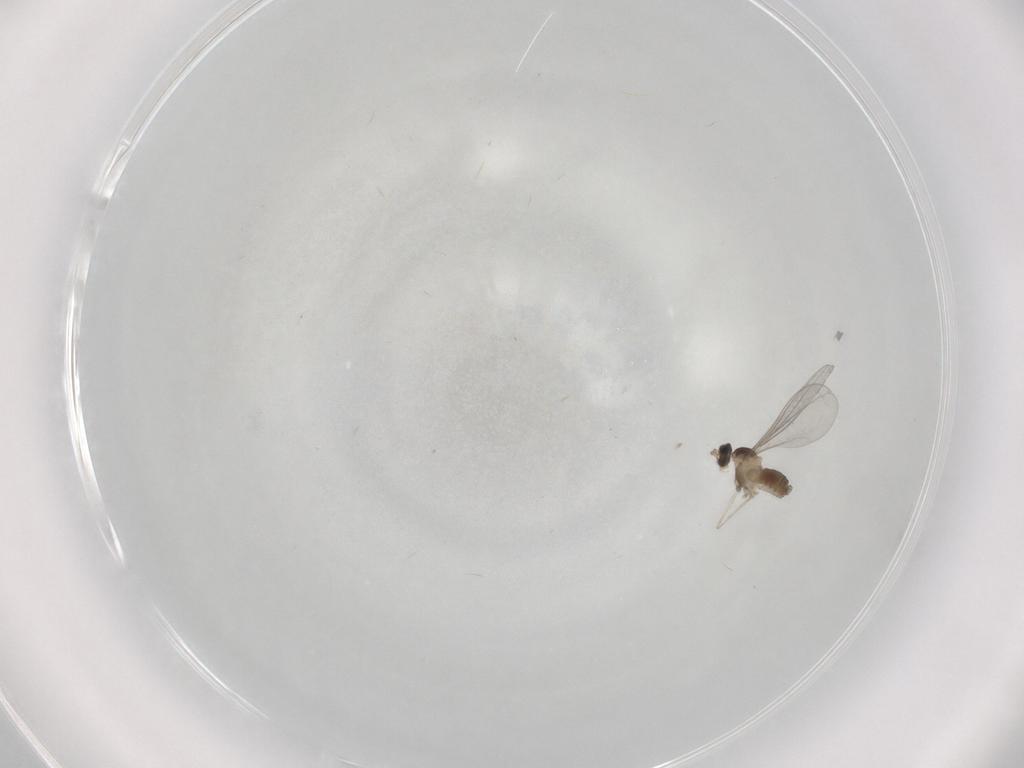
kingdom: Animalia
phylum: Arthropoda
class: Insecta
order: Diptera
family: Cecidomyiidae
